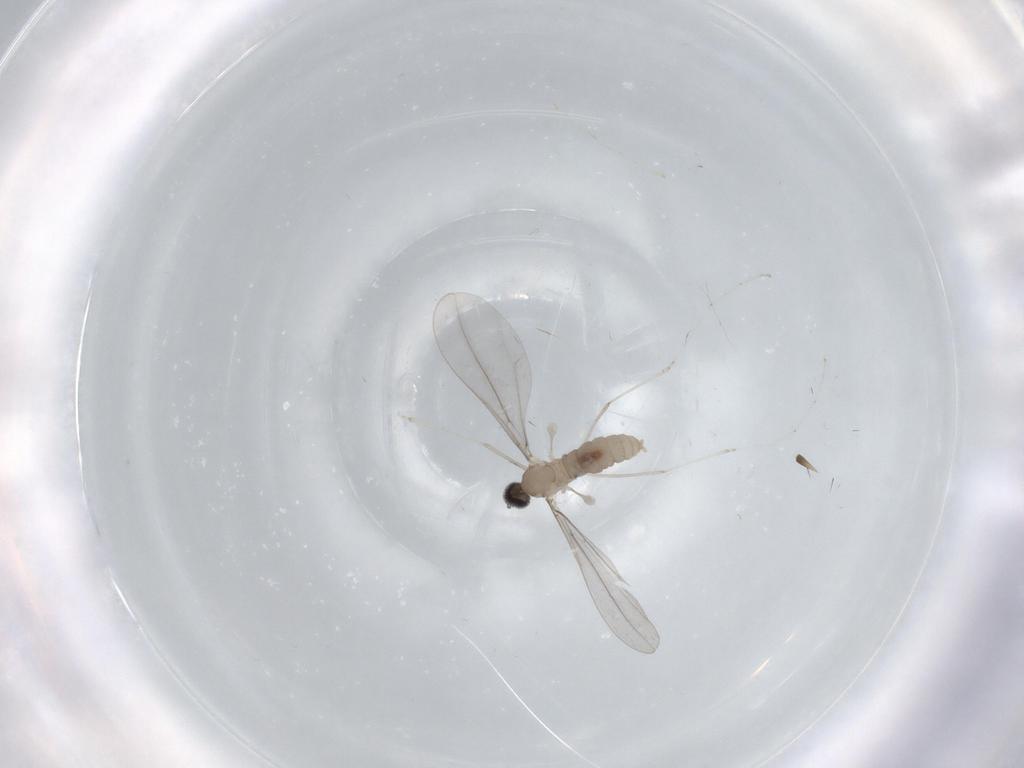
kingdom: Animalia
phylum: Arthropoda
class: Insecta
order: Diptera
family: Cecidomyiidae
